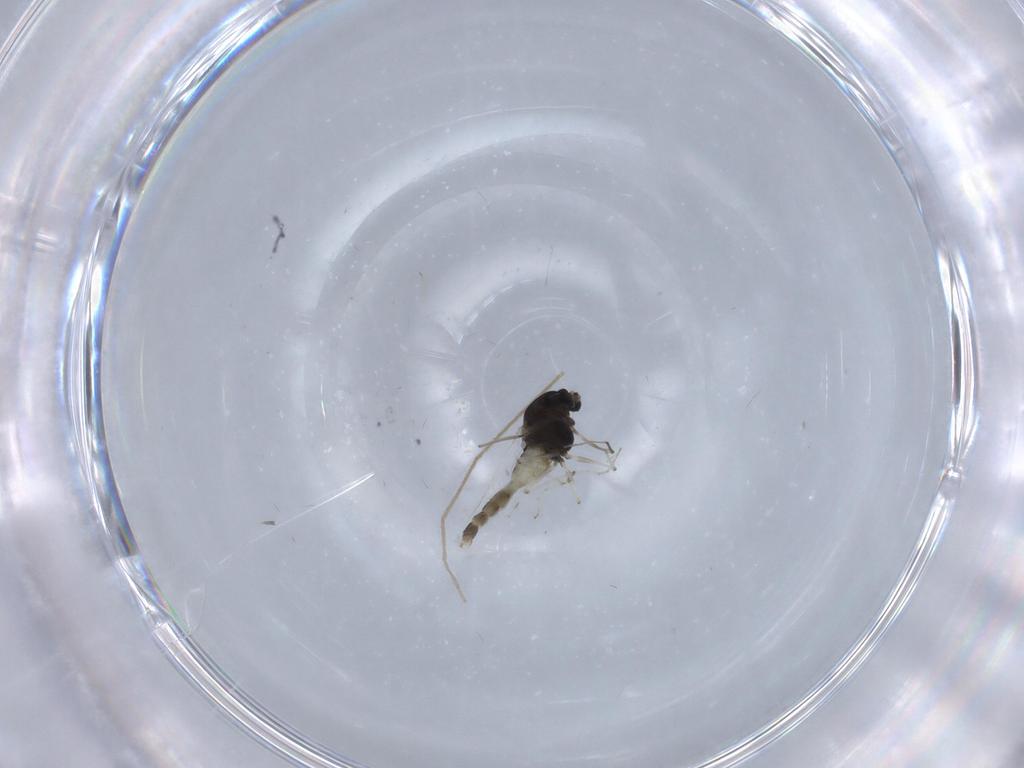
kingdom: Animalia
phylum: Arthropoda
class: Insecta
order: Diptera
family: Chironomidae
